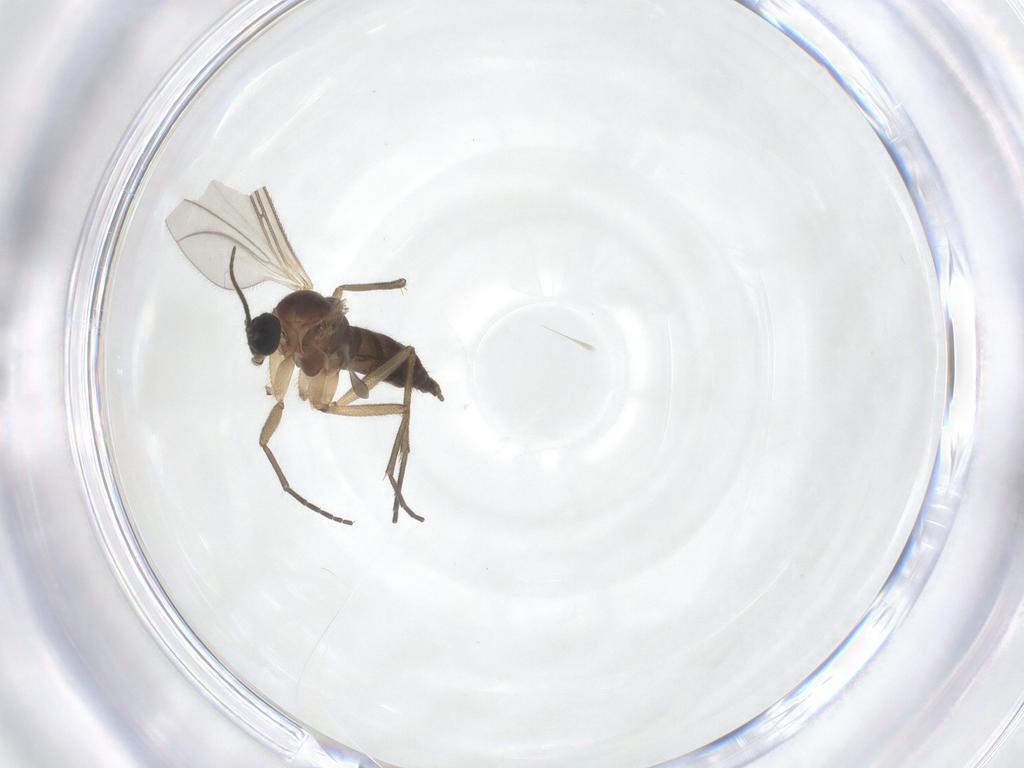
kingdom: Animalia
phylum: Arthropoda
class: Insecta
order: Diptera
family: Sciaridae
